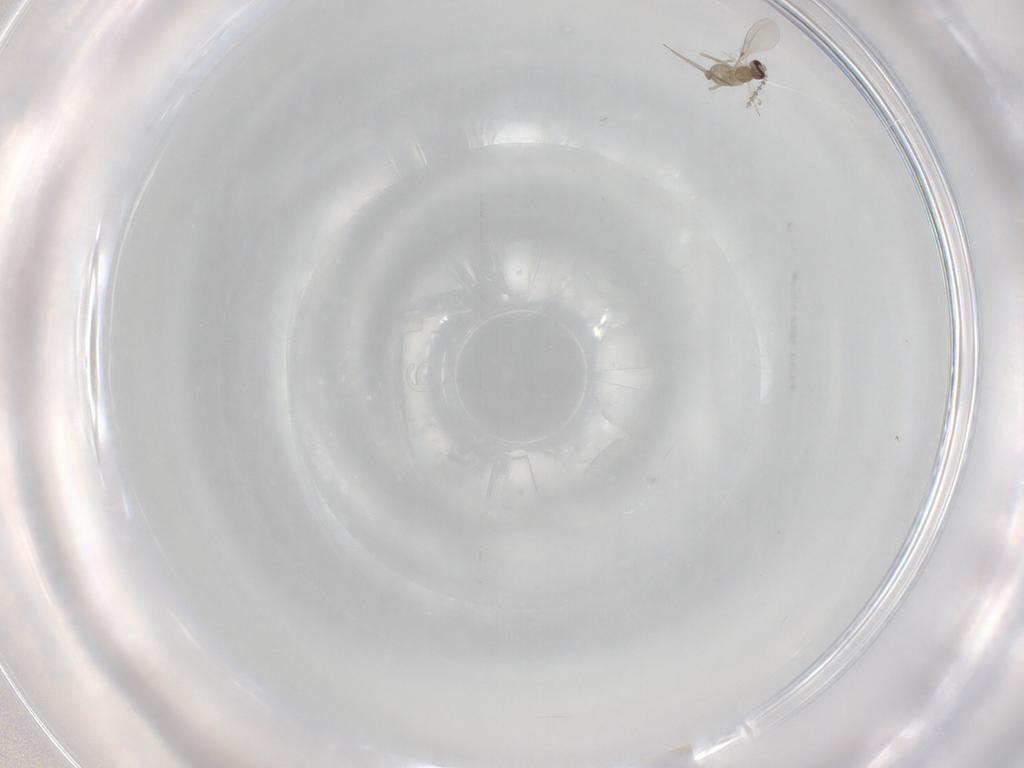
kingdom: Animalia
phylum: Arthropoda
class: Insecta
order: Diptera
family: Cecidomyiidae
